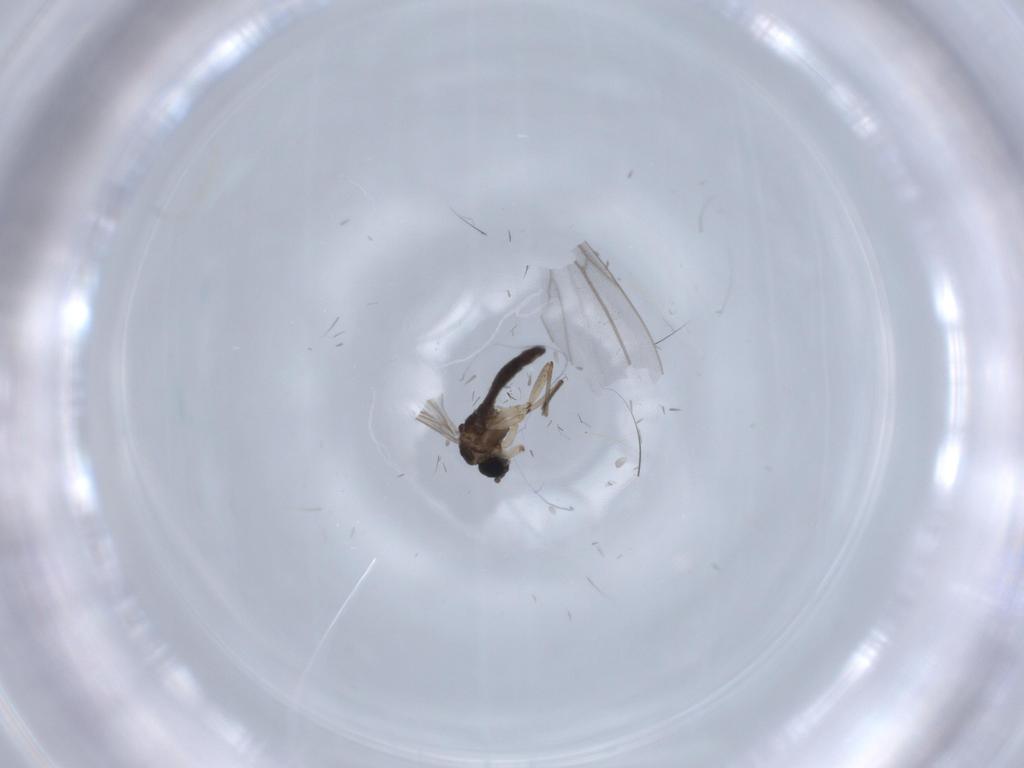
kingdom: Animalia
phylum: Arthropoda
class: Insecta
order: Diptera
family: Sciaridae
